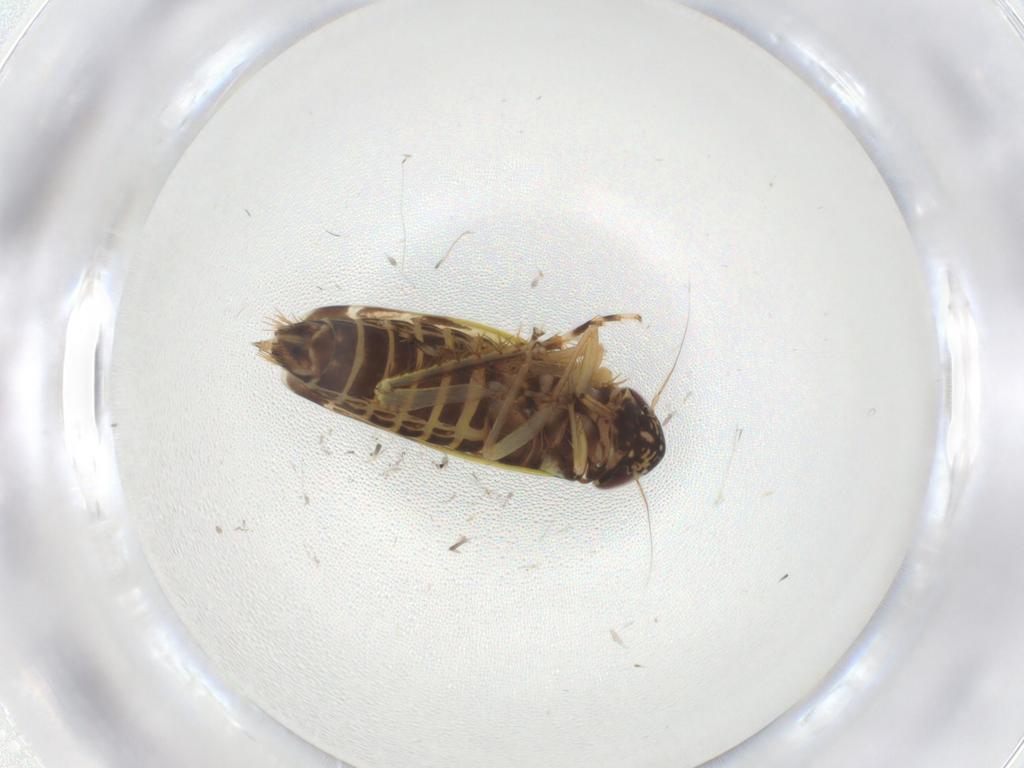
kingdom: Animalia
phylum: Arthropoda
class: Insecta
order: Hemiptera
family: Cicadellidae
